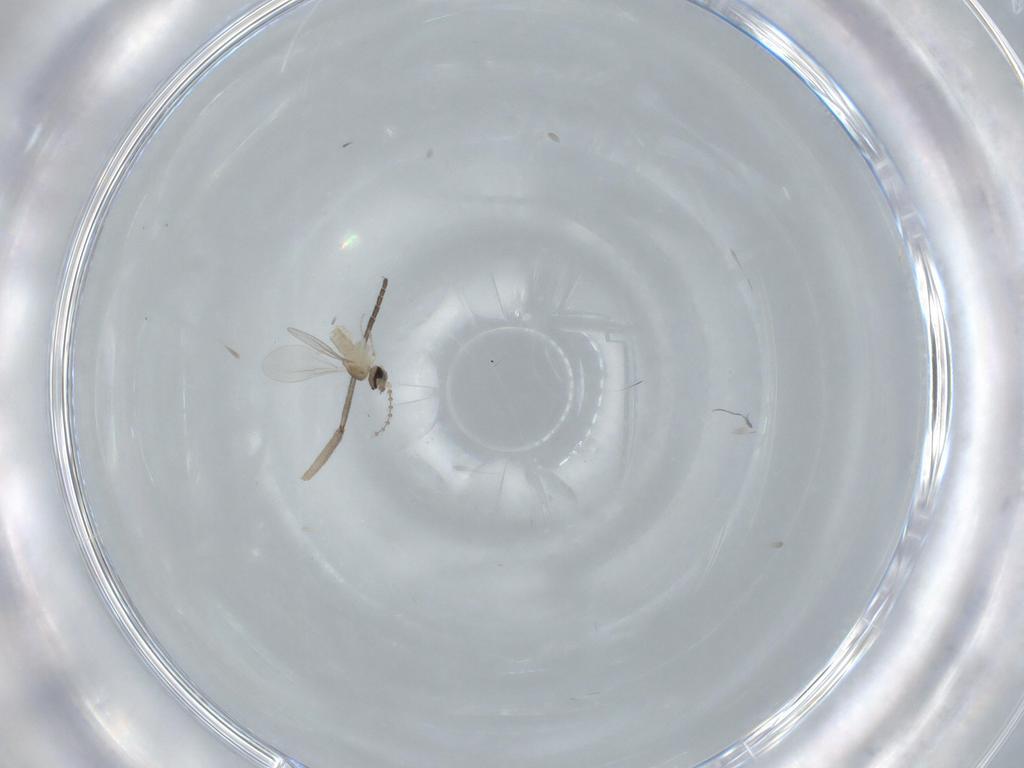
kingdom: Animalia
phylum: Arthropoda
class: Insecta
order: Diptera
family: Cecidomyiidae
